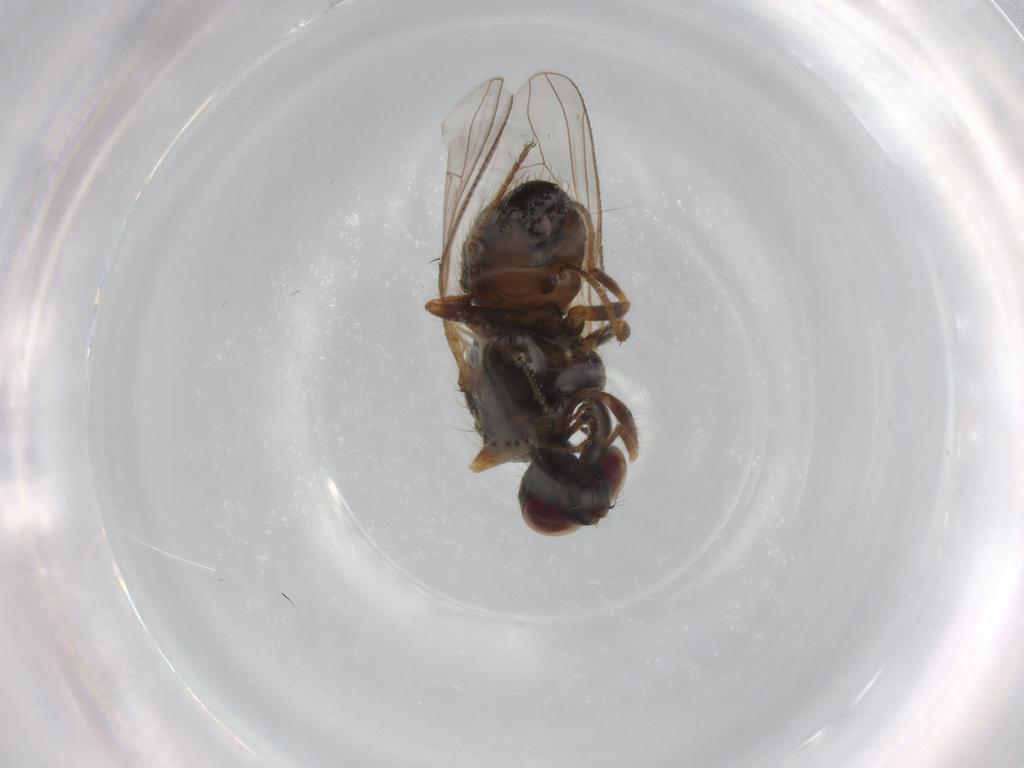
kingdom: Animalia
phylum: Arthropoda
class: Insecta
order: Diptera
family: Muscidae
